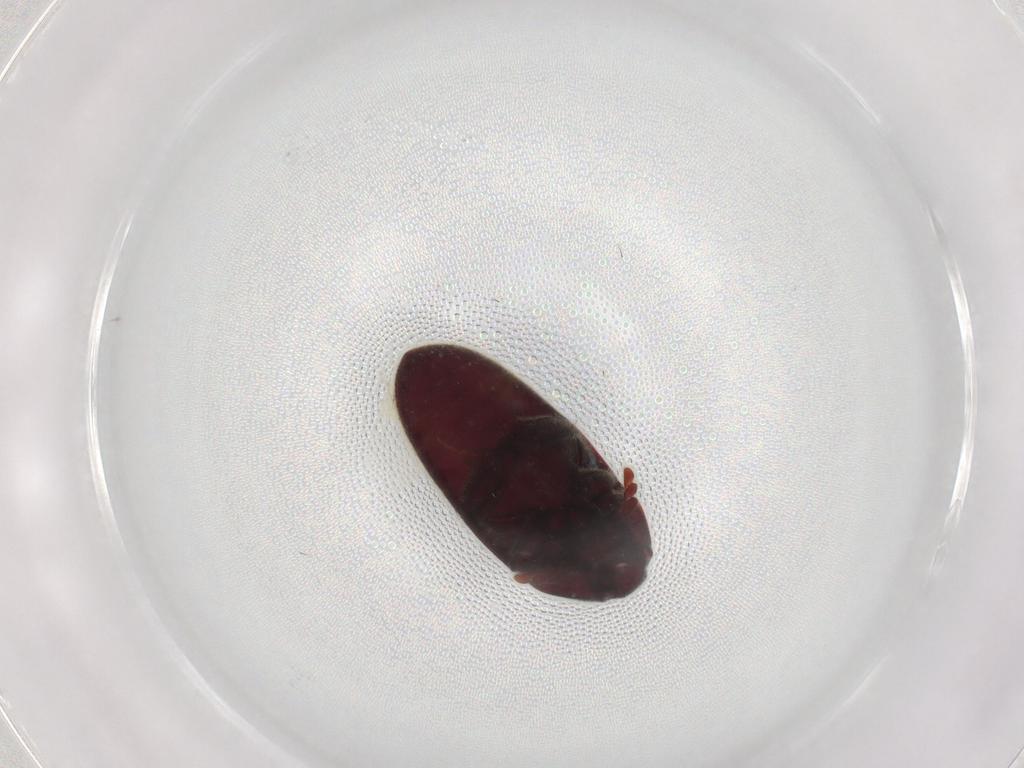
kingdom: Animalia
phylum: Arthropoda
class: Insecta
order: Coleoptera
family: Throscidae
